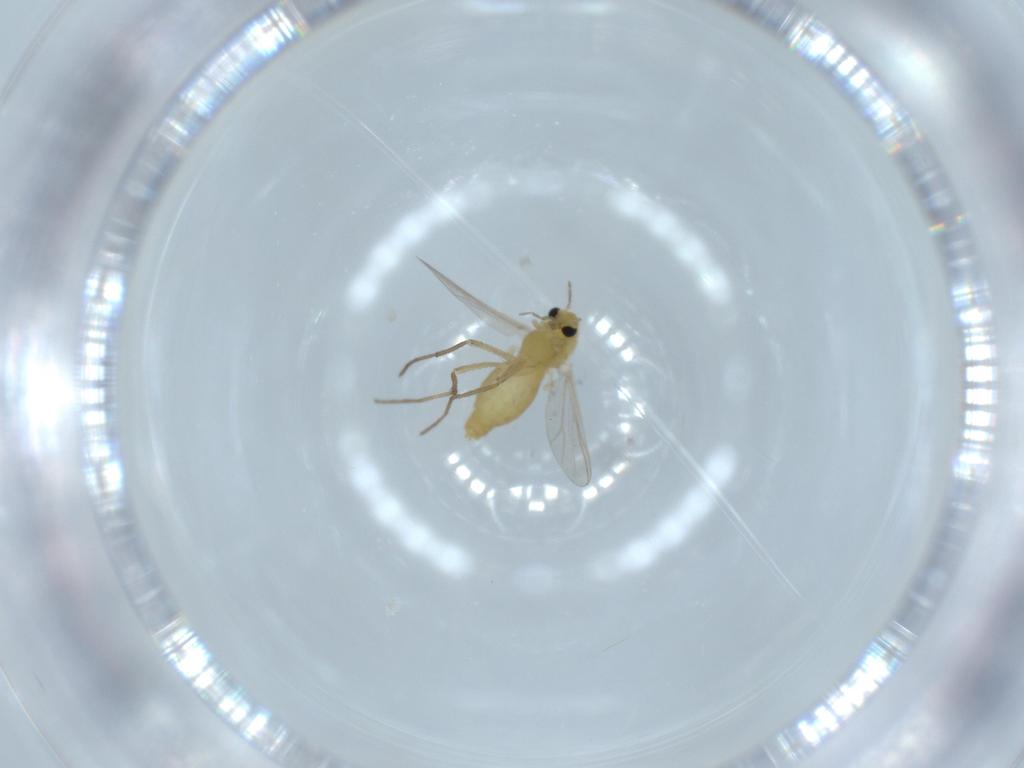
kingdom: Animalia
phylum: Arthropoda
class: Insecta
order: Diptera
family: Chironomidae
